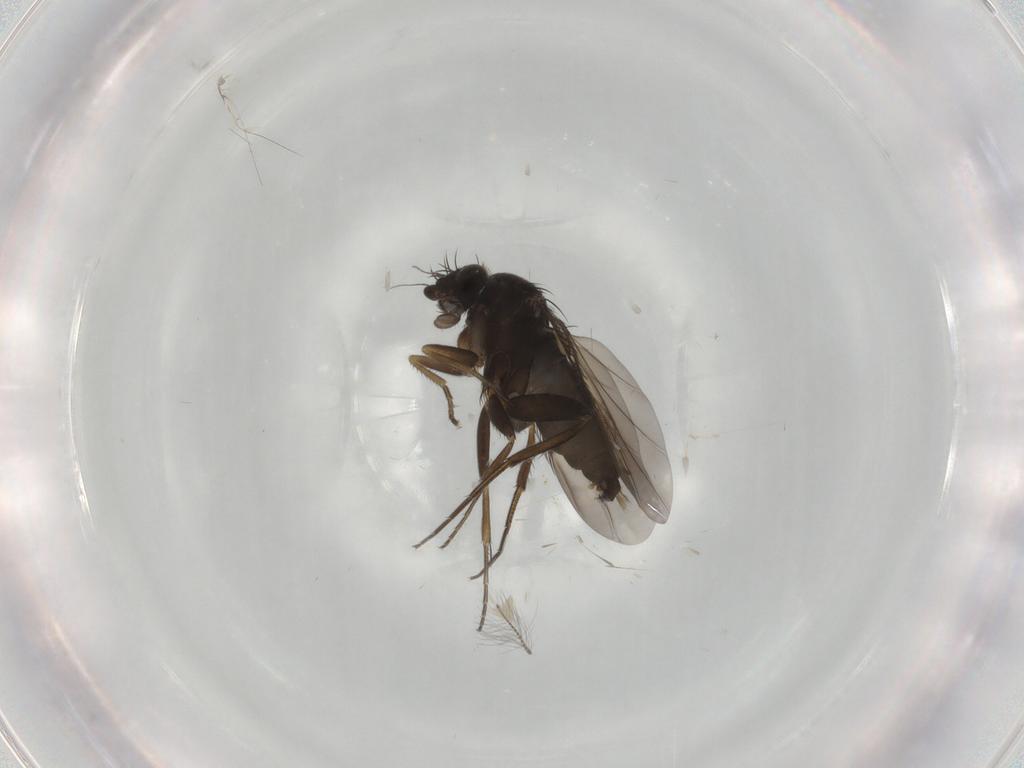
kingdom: Animalia
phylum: Arthropoda
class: Insecta
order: Diptera
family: Phoridae
